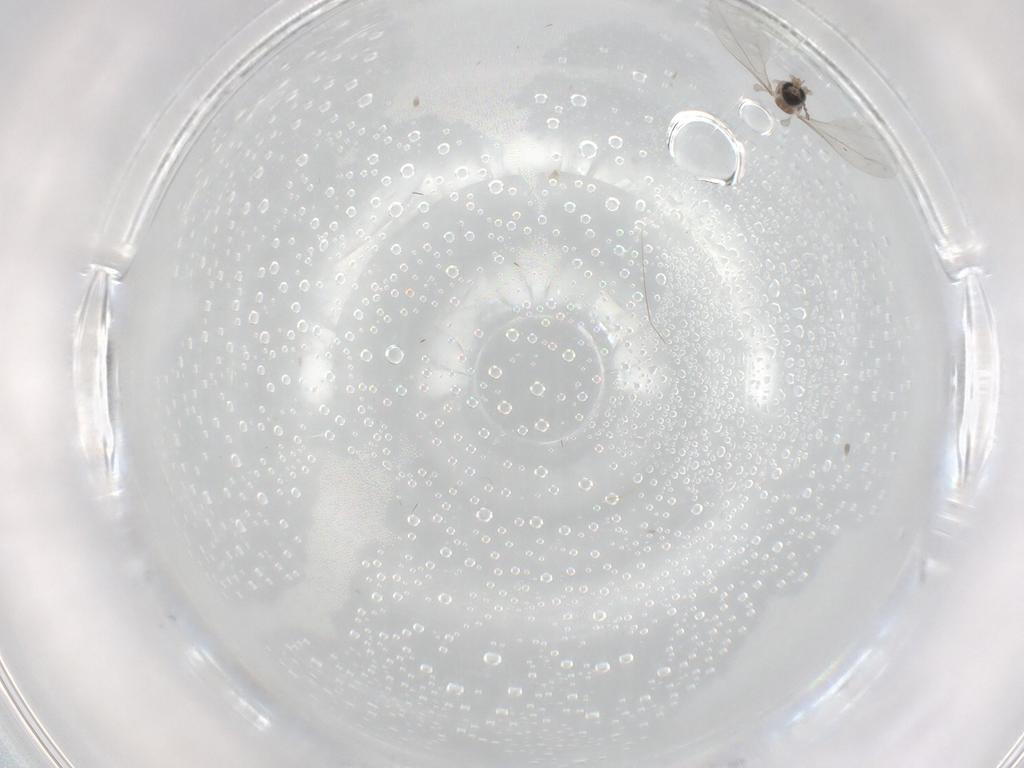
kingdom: Animalia
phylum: Arthropoda
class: Insecta
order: Diptera
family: Cecidomyiidae
